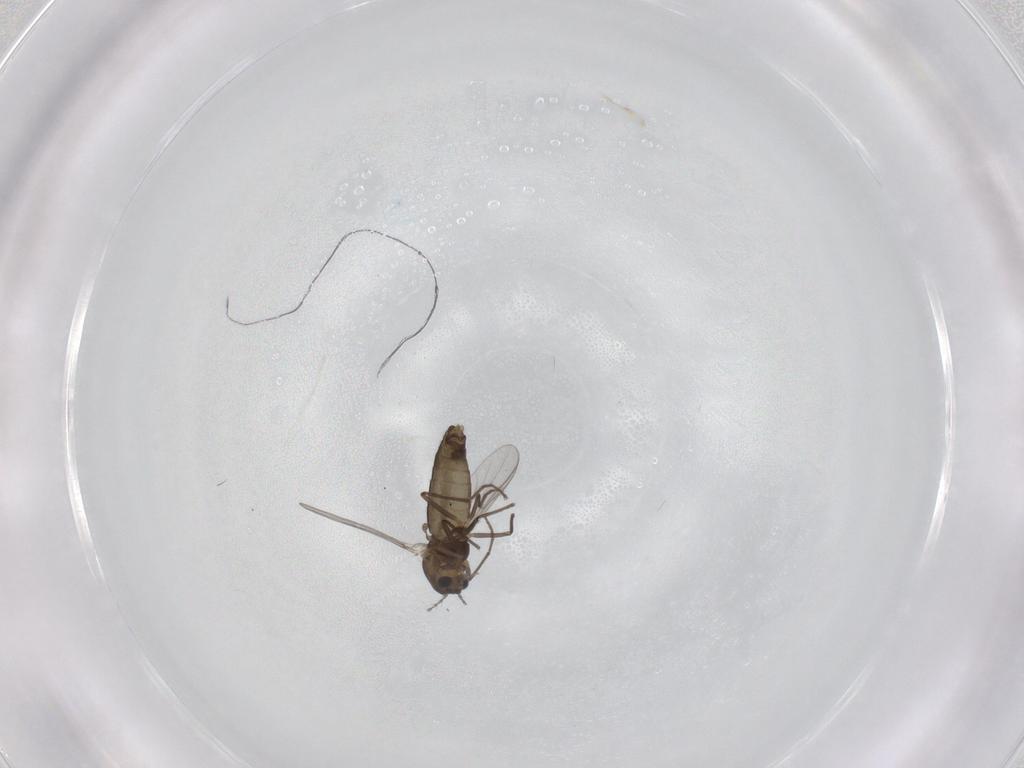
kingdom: Animalia
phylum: Arthropoda
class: Insecta
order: Diptera
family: Chironomidae
